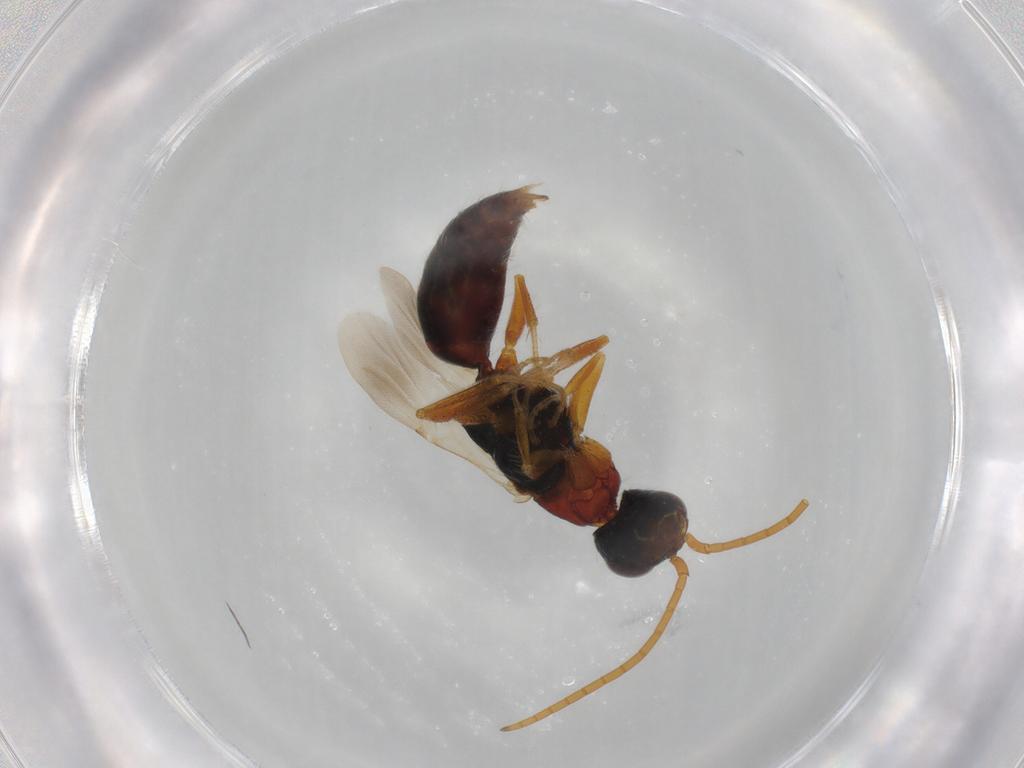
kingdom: Animalia
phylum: Arthropoda
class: Insecta
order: Hymenoptera
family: Bethylidae
